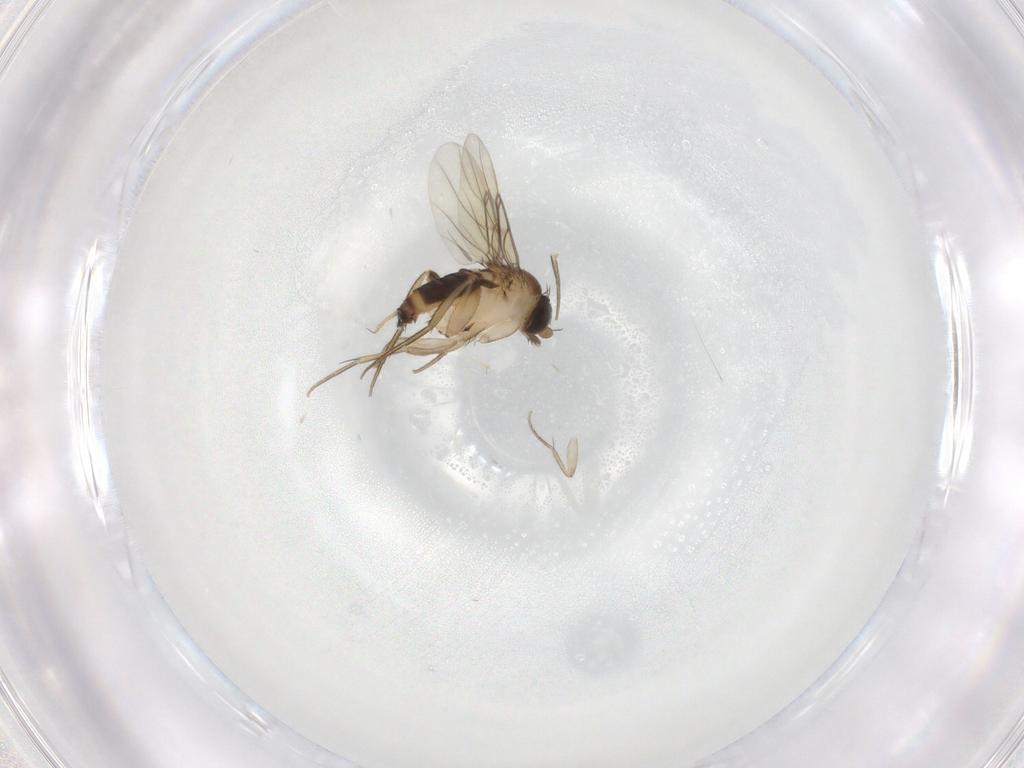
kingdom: Animalia
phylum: Arthropoda
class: Insecta
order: Diptera
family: Phoridae
